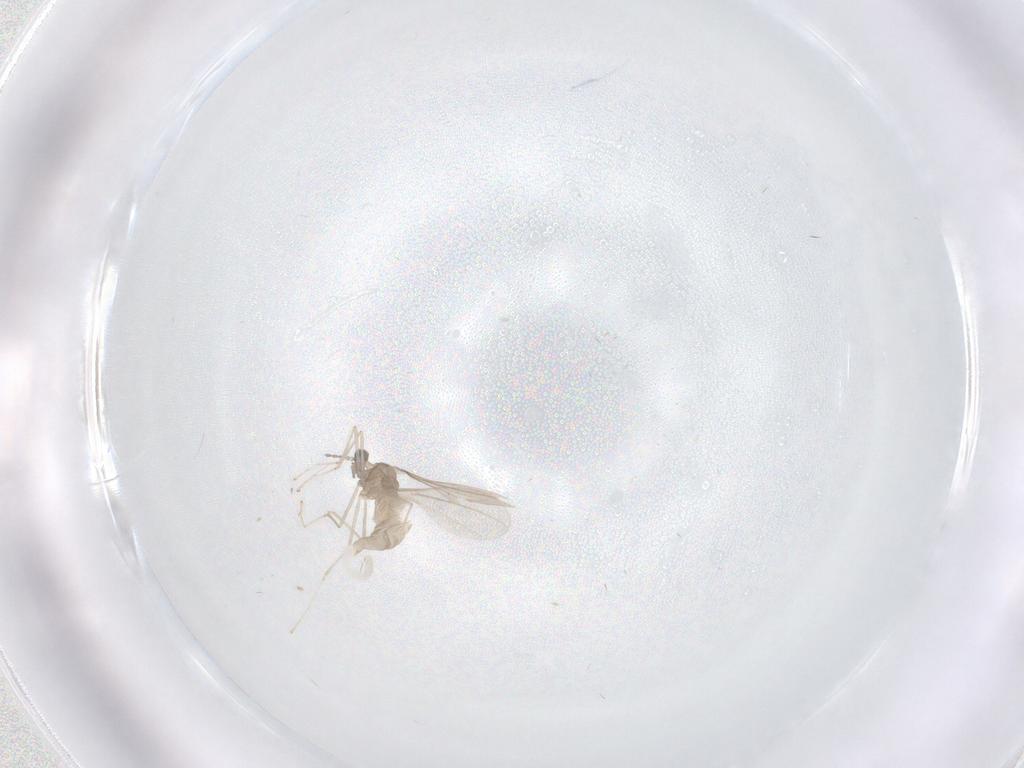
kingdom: Animalia
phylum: Arthropoda
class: Insecta
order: Diptera
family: Cecidomyiidae
